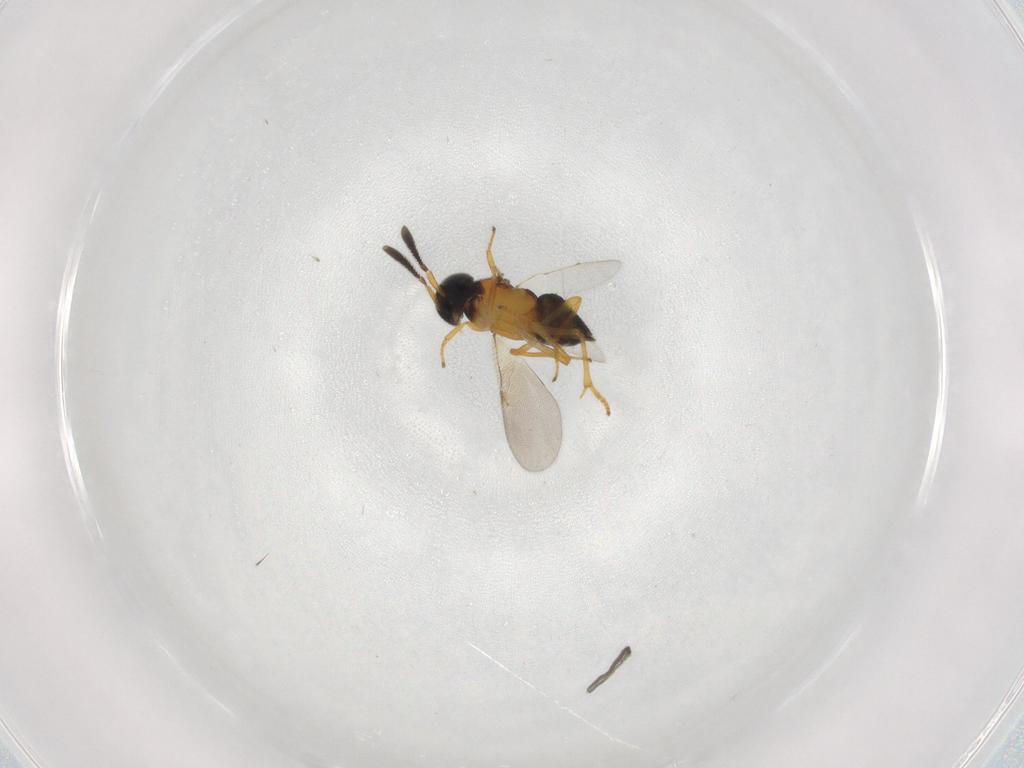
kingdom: Animalia
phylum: Arthropoda
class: Insecta
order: Hymenoptera
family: Encyrtidae
